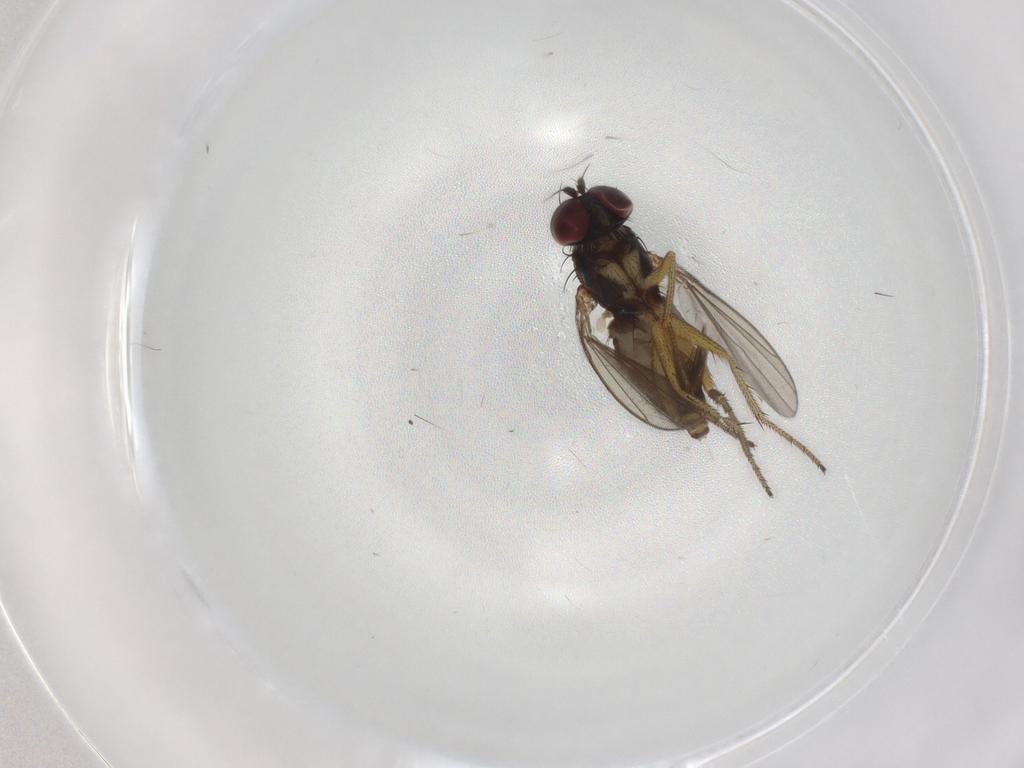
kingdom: Animalia
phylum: Arthropoda
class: Insecta
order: Diptera
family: Dolichopodidae
